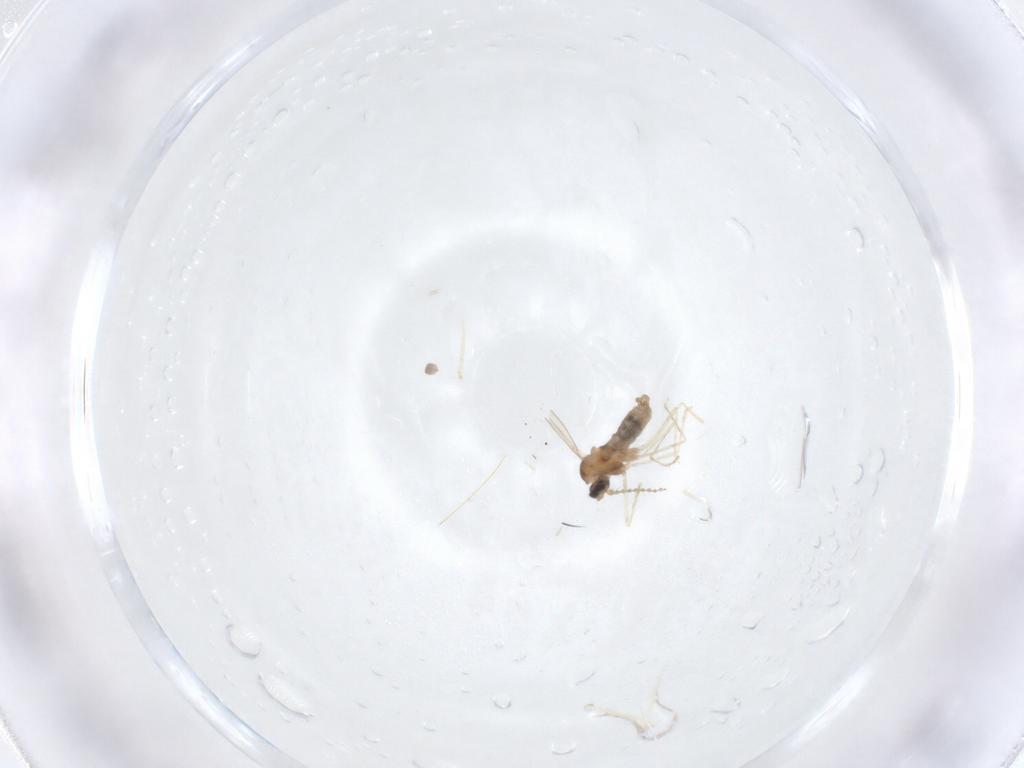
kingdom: Animalia
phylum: Arthropoda
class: Insecta
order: Diptera
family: Cecidomyiidae
